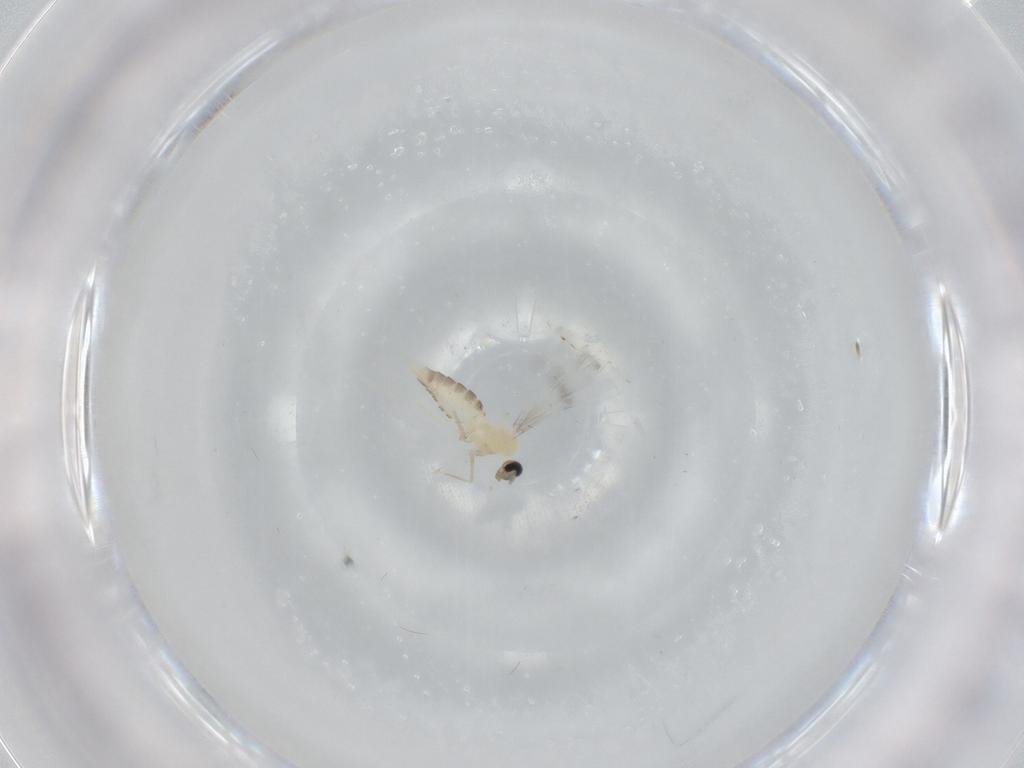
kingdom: Animalia
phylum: Arthropoda
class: Insecta
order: Diptera
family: Cecidomyiidae
